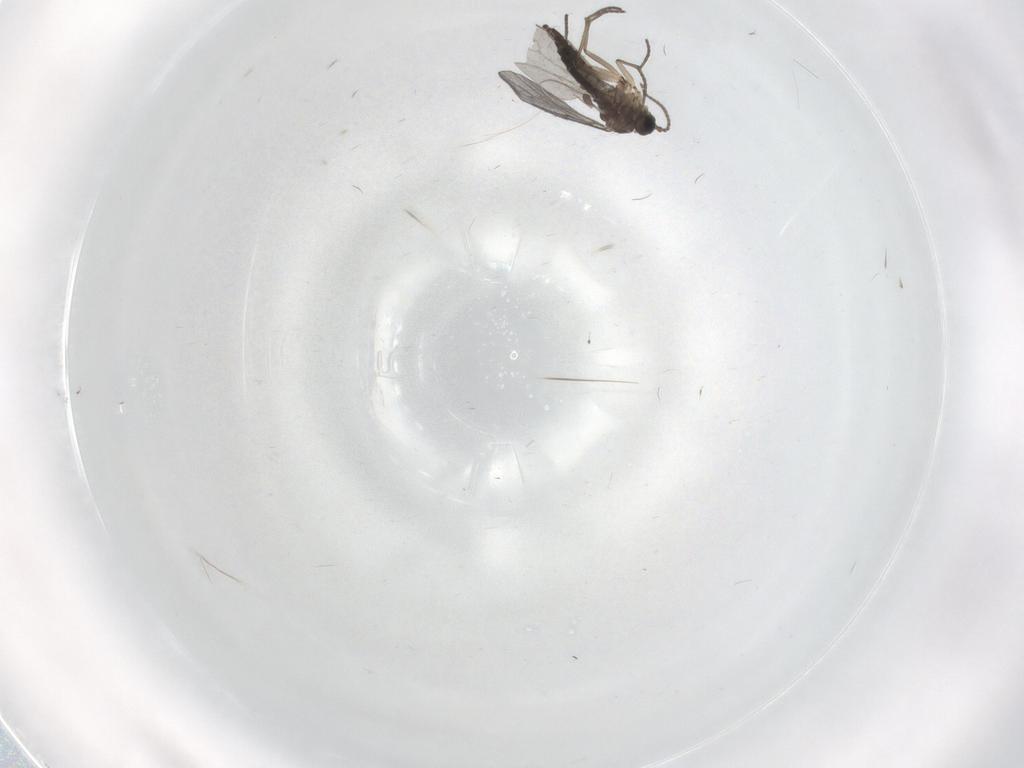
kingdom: Animalia
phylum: Arthropoda
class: Insecta
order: Diptera
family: Sciaridae
